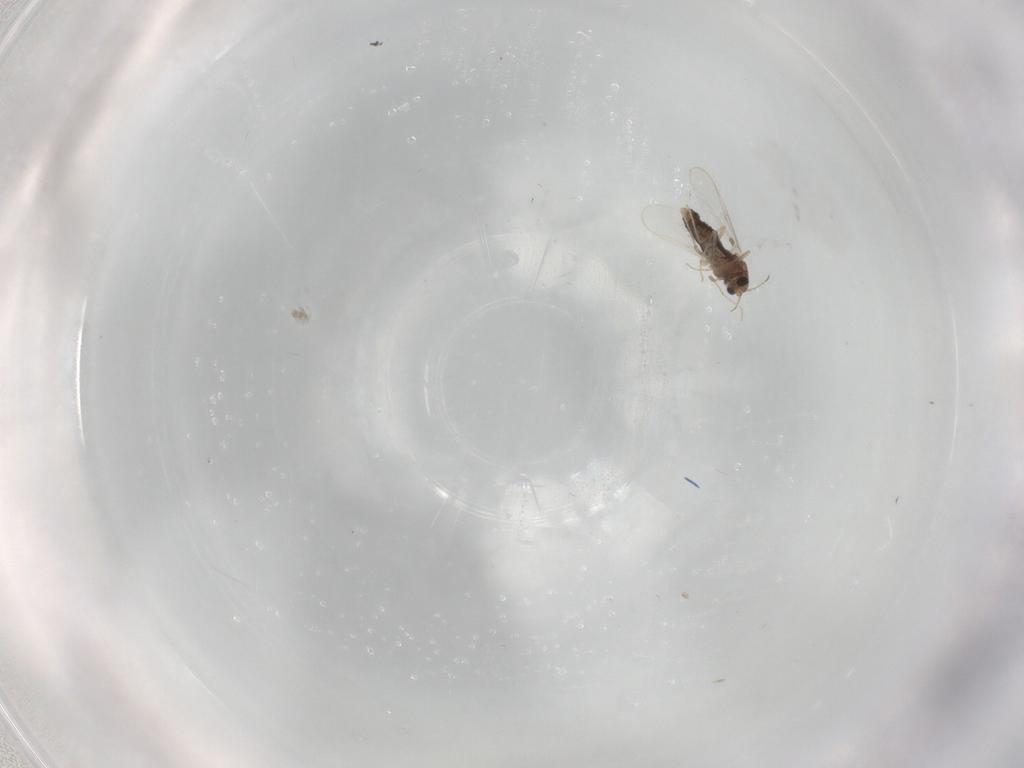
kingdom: Animalia
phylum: Arthropoda
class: Insecta
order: Diptera
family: Chironomidae
